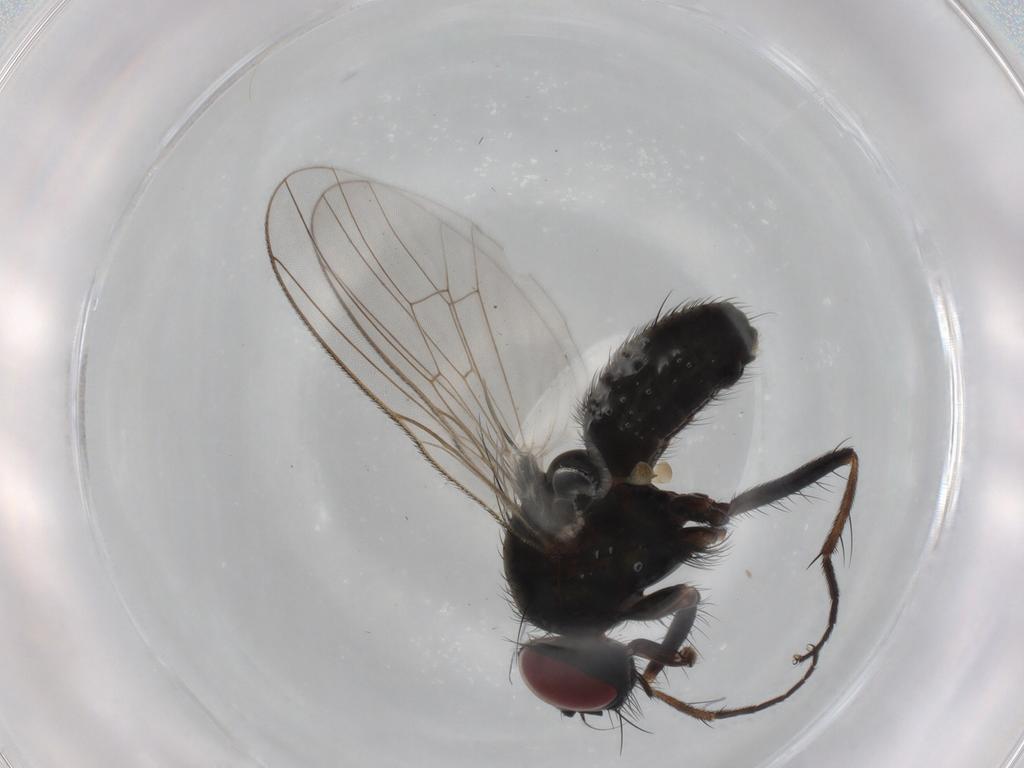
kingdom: Animalia
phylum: Arthropoda
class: Insecta
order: Diptera
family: Muscidae
